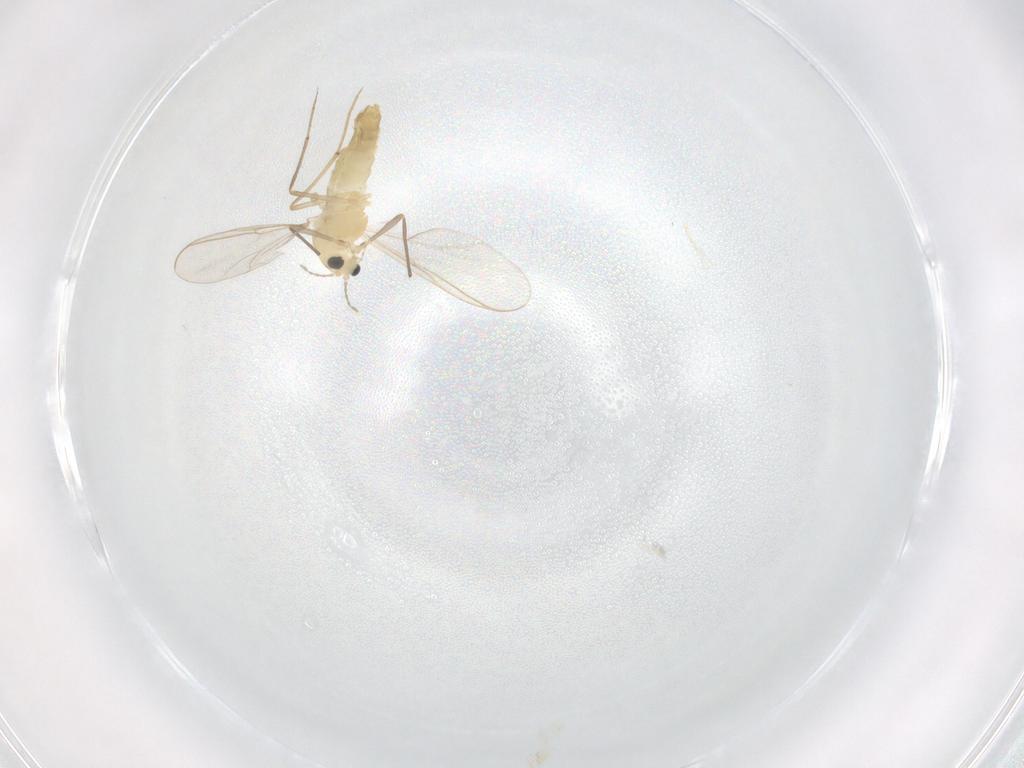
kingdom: Animalia
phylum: Arthropoda
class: Insecta
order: Diptera
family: Chironomidae
